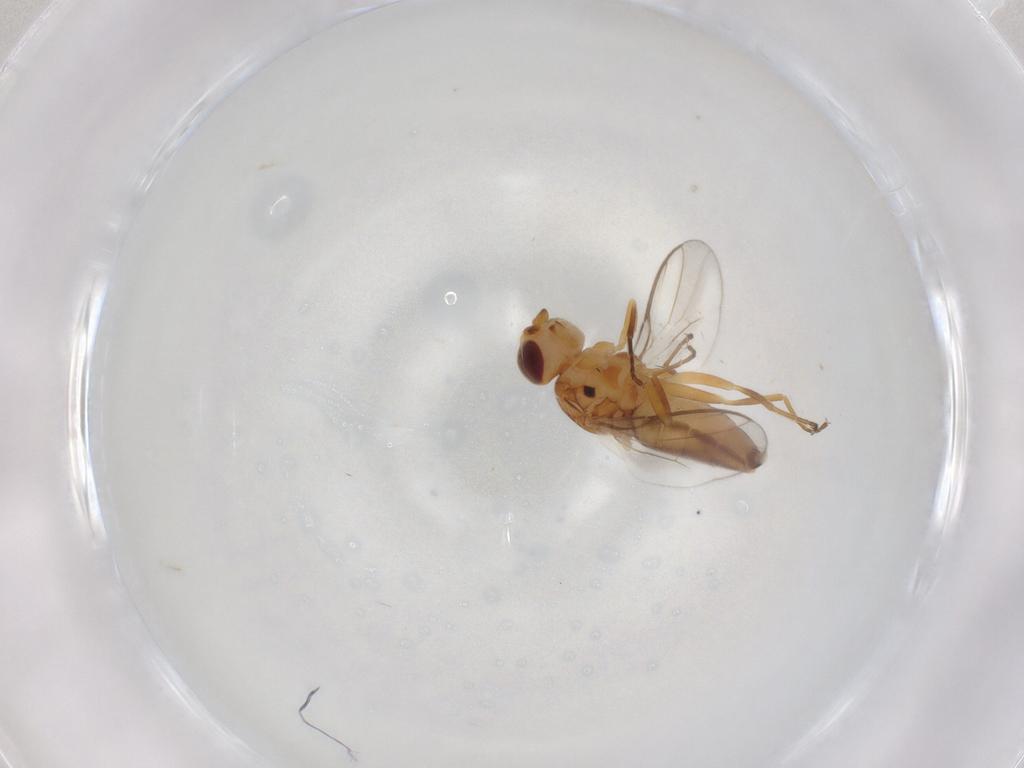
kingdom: Animalia
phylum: Arthropoda
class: Insecta
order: Diptera
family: Chloropidae
